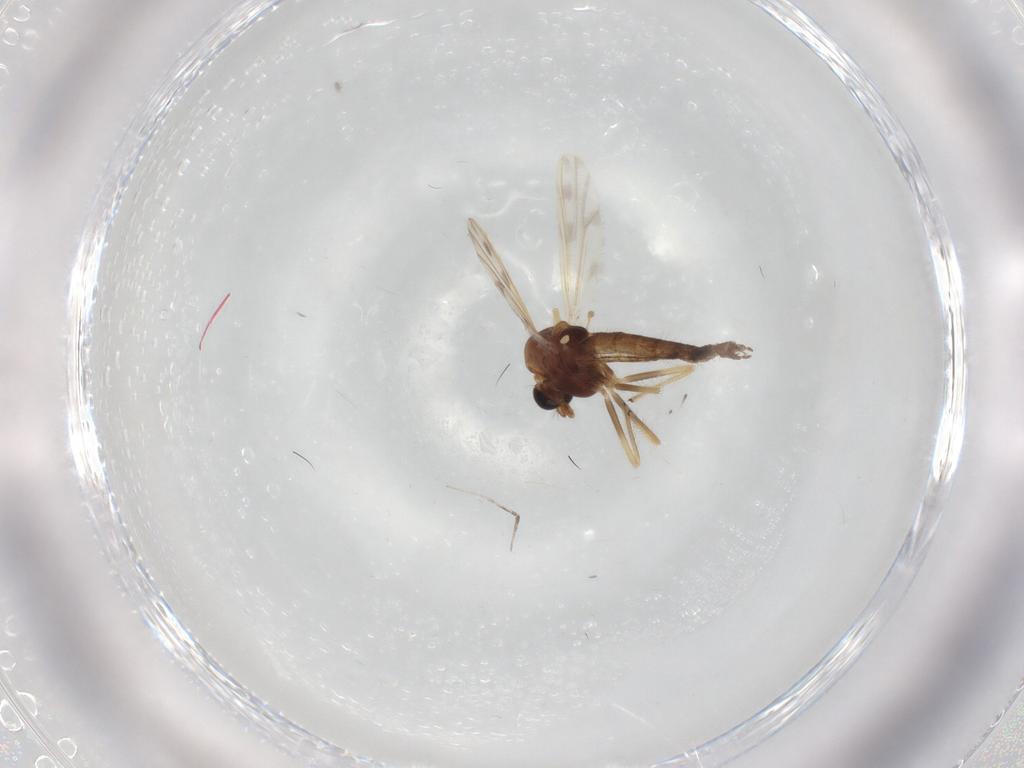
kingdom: Animalia
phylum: Arthropoda
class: Insecta
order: Diptera
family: Chironomidae
